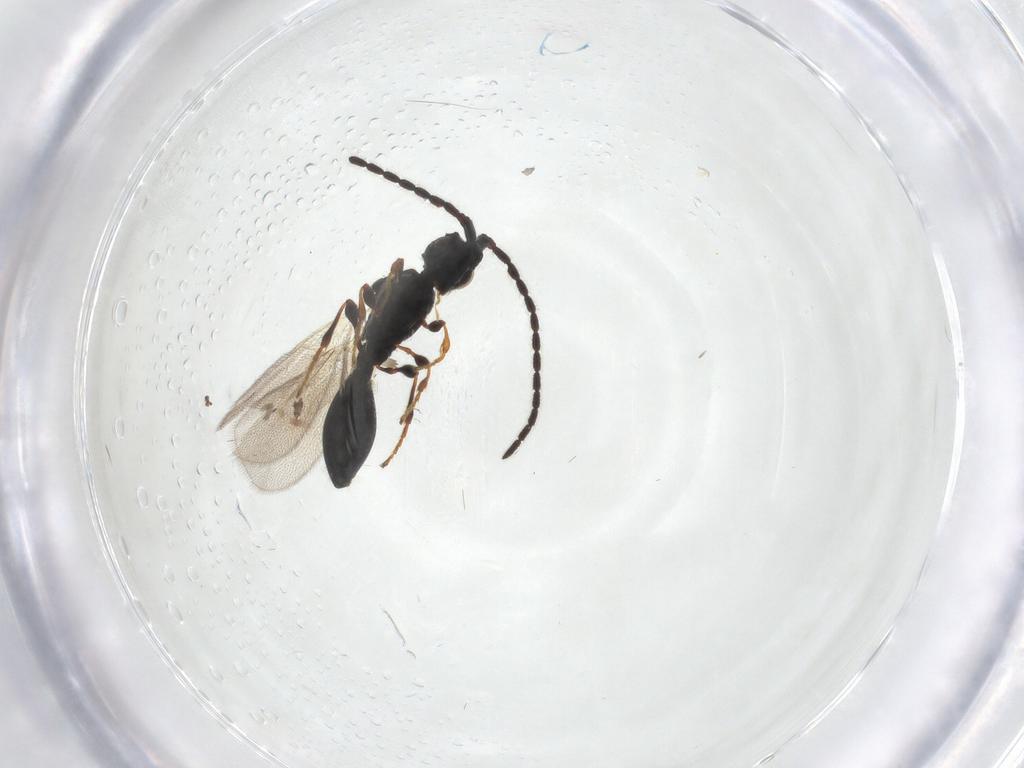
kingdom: Animalia
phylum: Arthropoda
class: Insecta
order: Hymenoptera
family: Diapriidae
